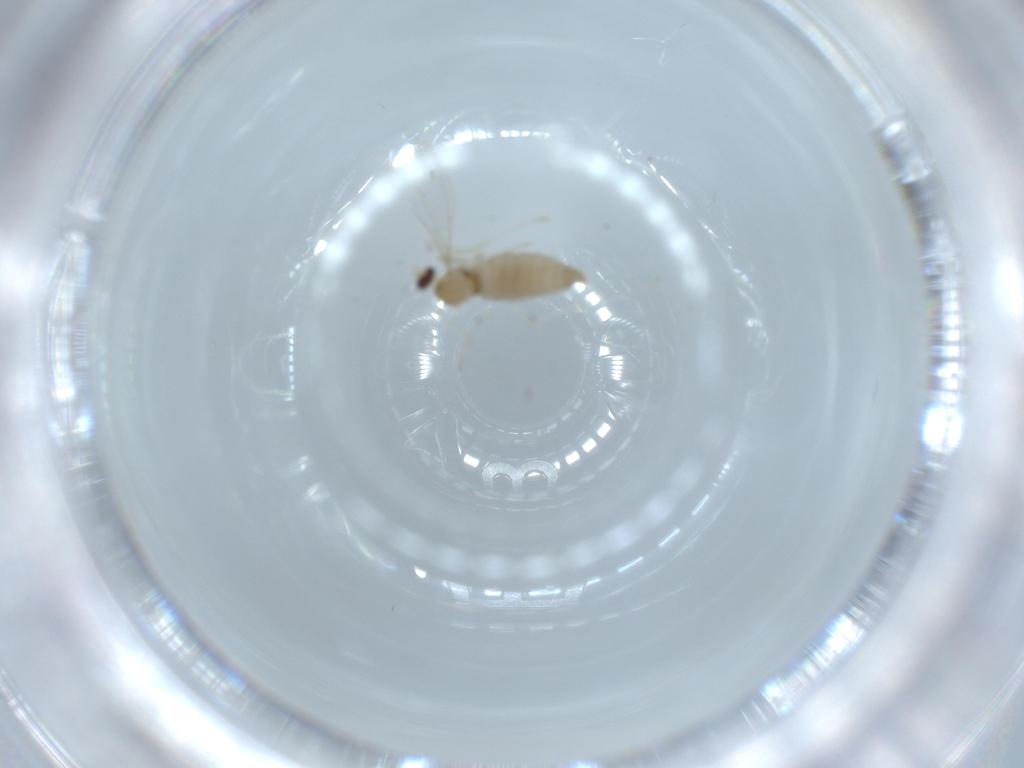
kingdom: Animalia
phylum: Arthropoda
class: Insecta
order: Diptera
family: Cecidomyiidae
